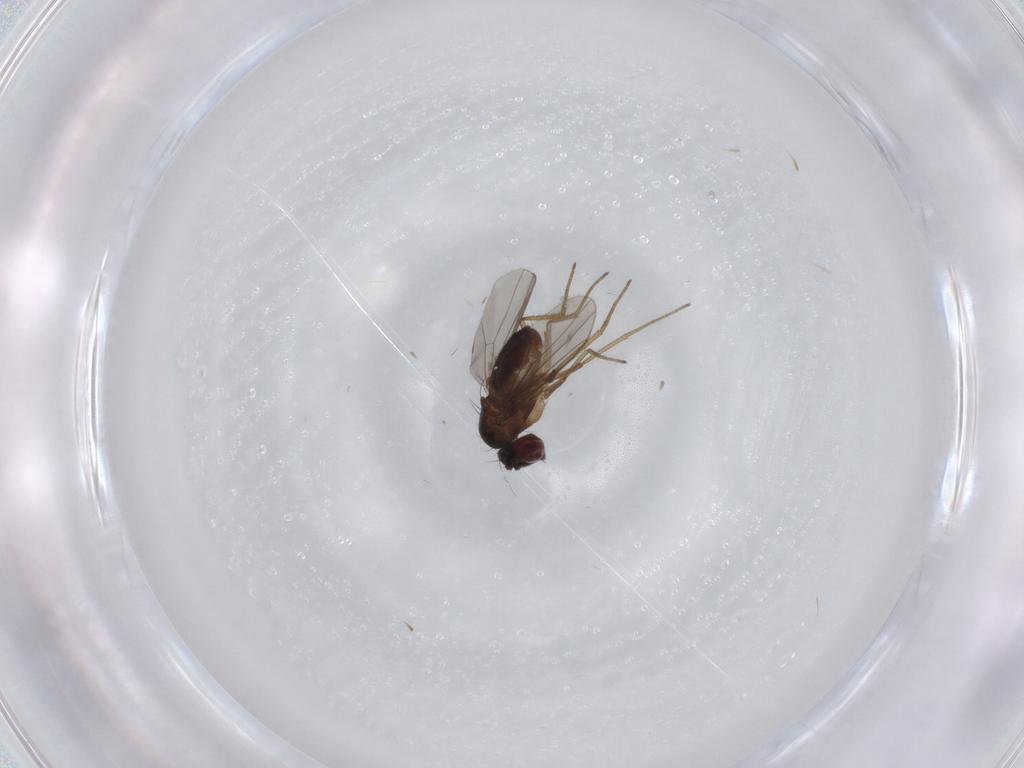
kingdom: Animalia
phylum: Arthropoda
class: Insecta
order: Diptera
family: Dolichopodidae
